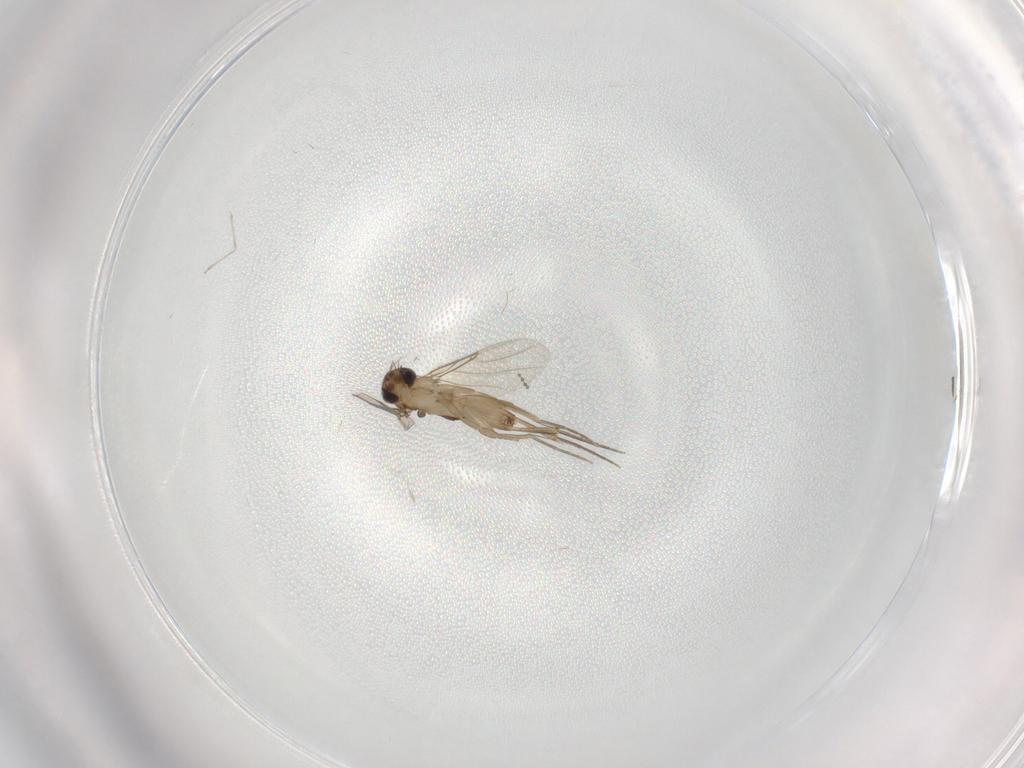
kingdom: Animalia
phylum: Arthropoda
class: Insecta
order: Diptera
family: Phoridae
